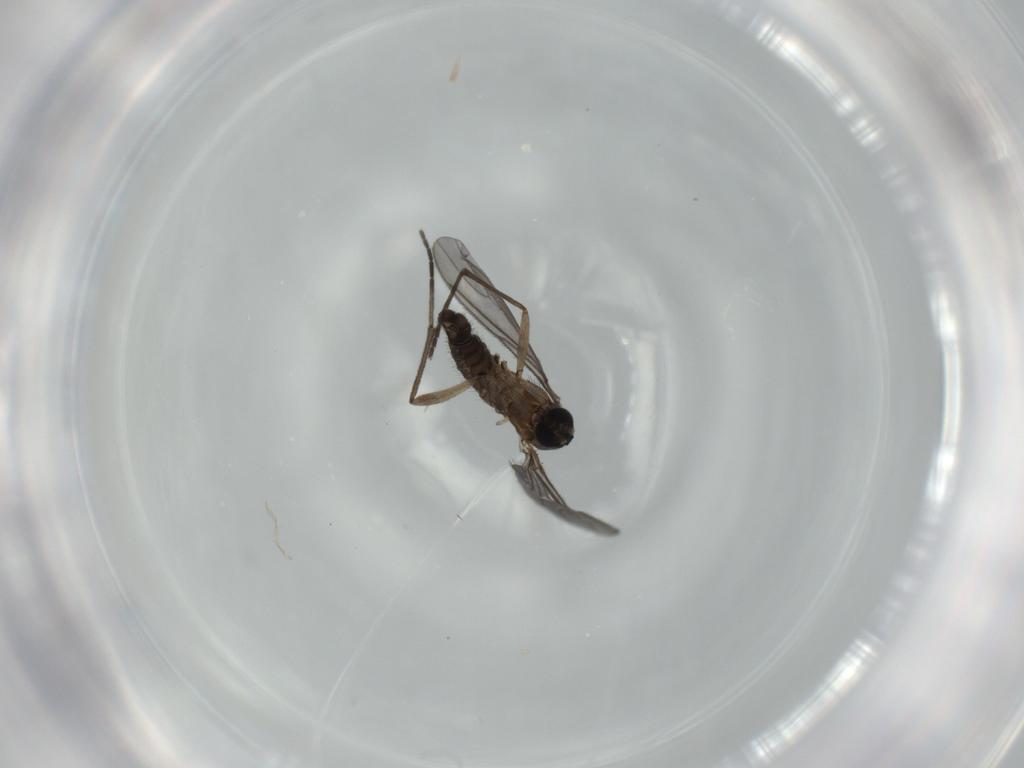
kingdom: Animalia
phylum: Arthropoda
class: Insecta
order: Diptera
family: Sciaridae
